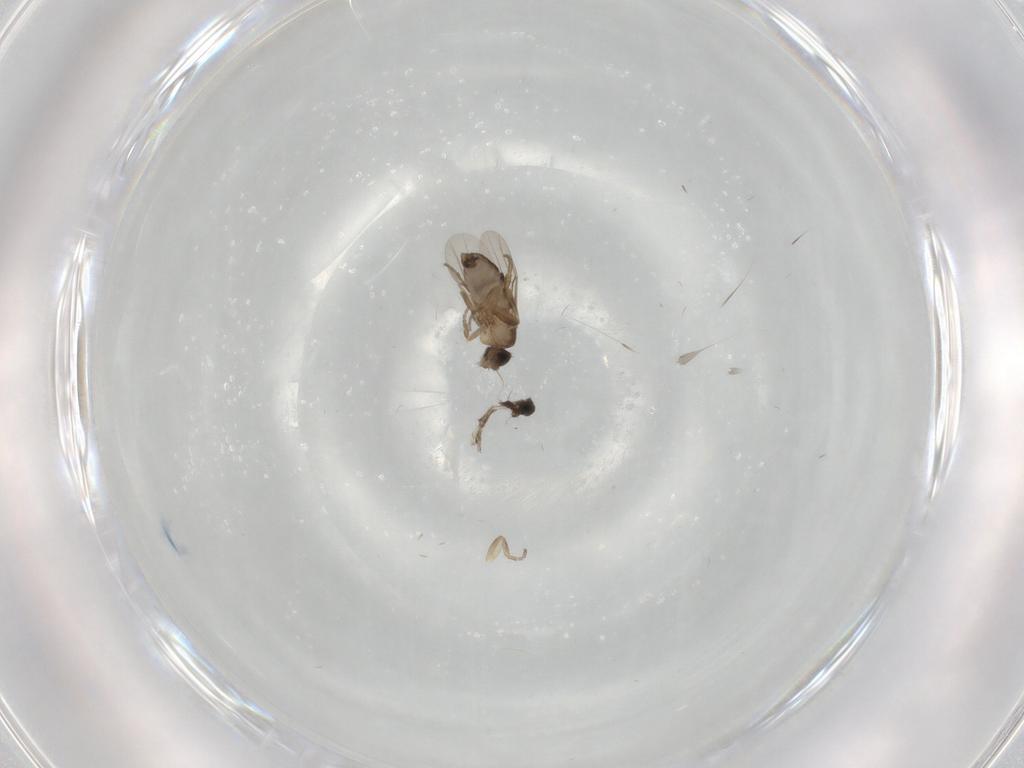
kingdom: Animalia
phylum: Arthropoda
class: Insecta
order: Diptera
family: Phoridae
